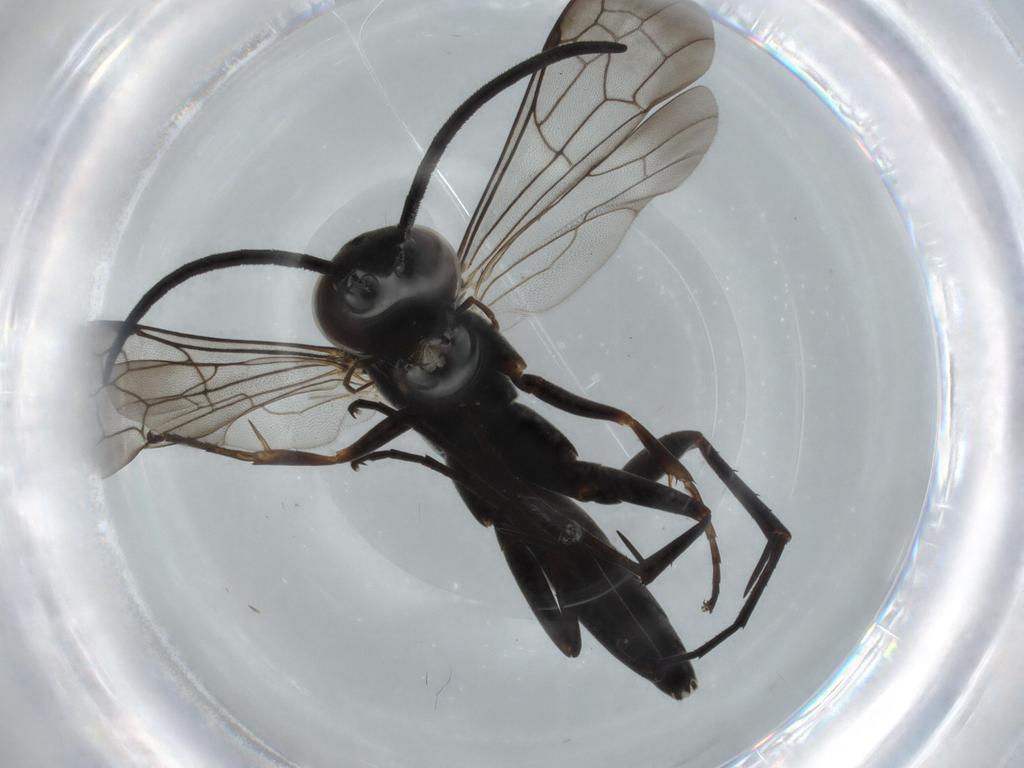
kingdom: Animalia
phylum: Arthropoda
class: Insecta
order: Hymenoptera
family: Pompilidae
